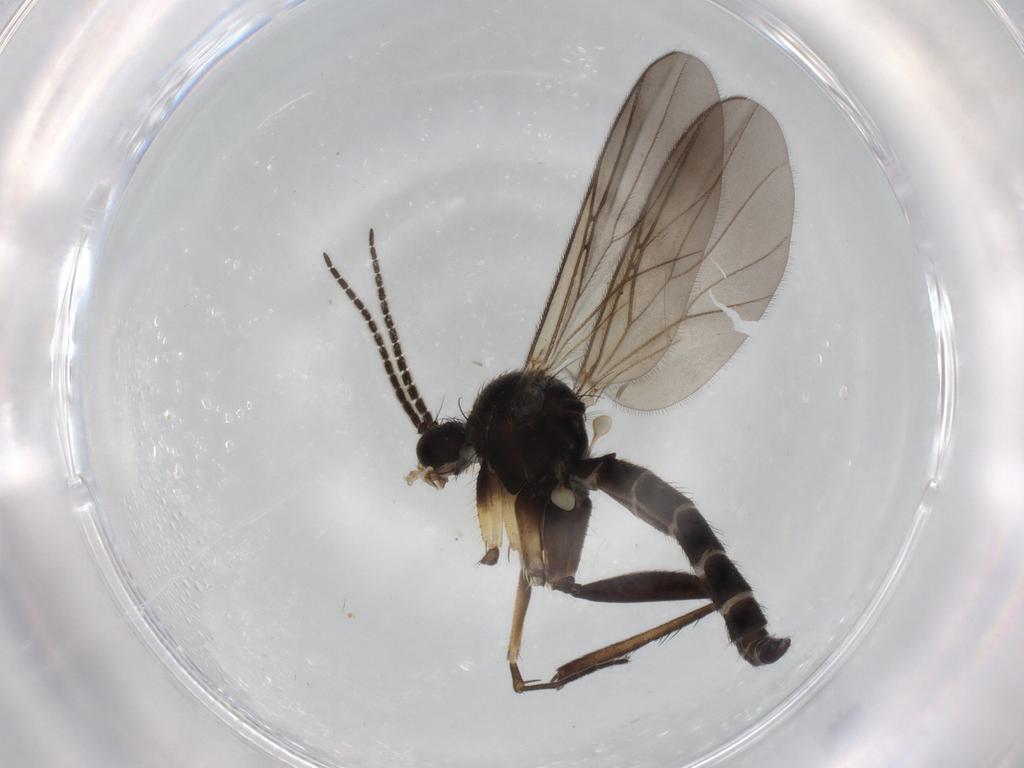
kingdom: Animalia
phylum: Arthropoda
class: Insecta
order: Diptera
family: Mycetophilidae
